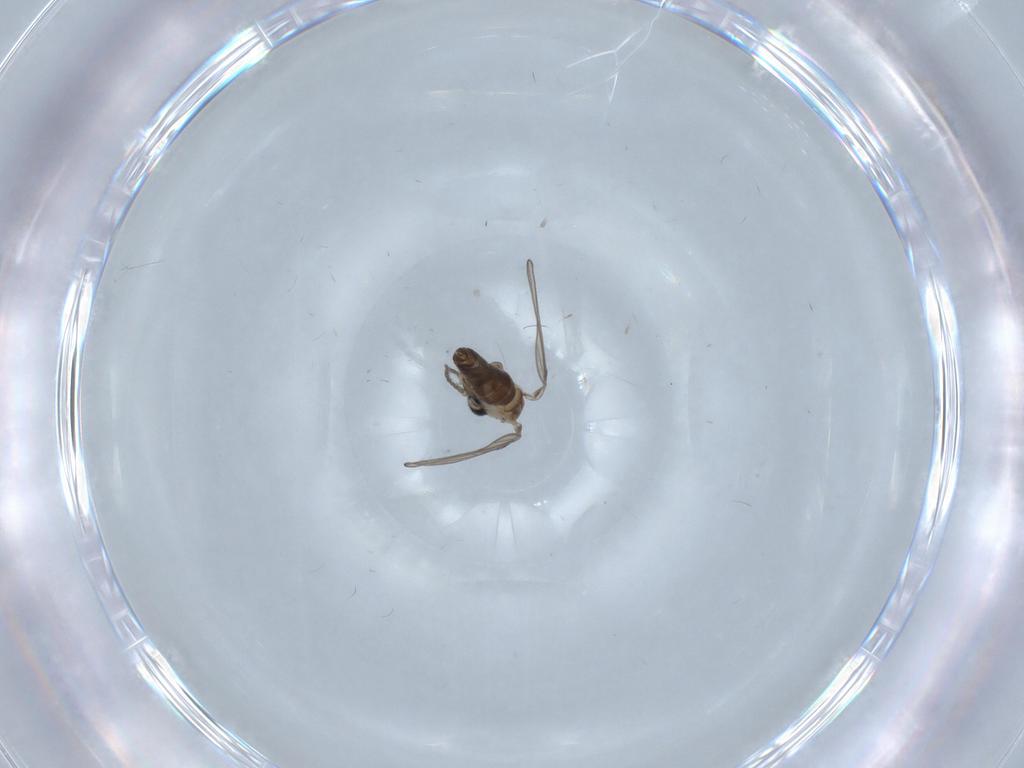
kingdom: Animalia
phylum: Arthropoda
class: Insecta
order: Diptera
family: Psychodidae
